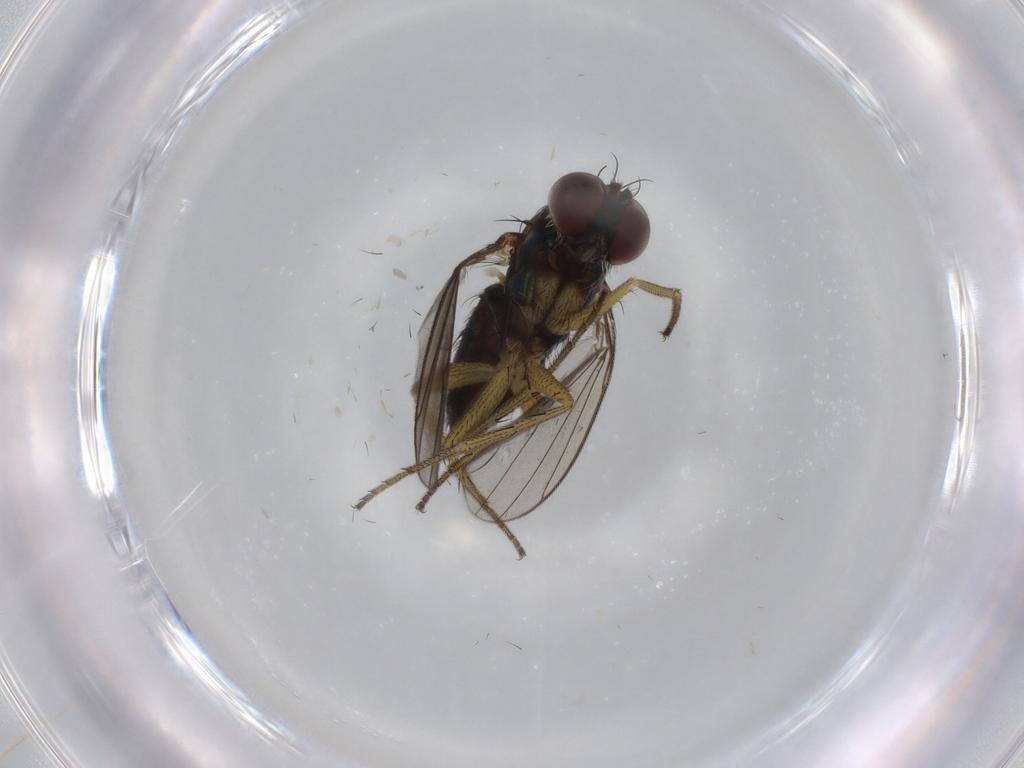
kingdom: Animalia
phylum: Arthropoda
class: Insecta
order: Diptera
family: Dolichopodidae
